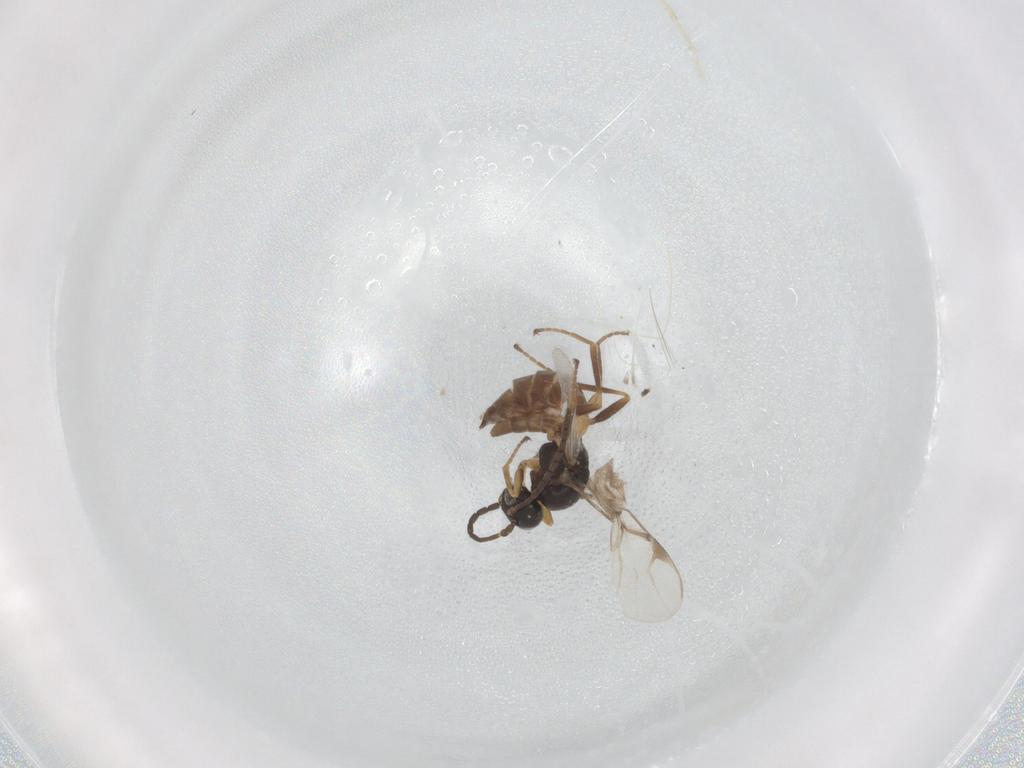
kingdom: Animalia
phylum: Arthropoda
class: Insecta
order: Hymenoptera
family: Braconidae
